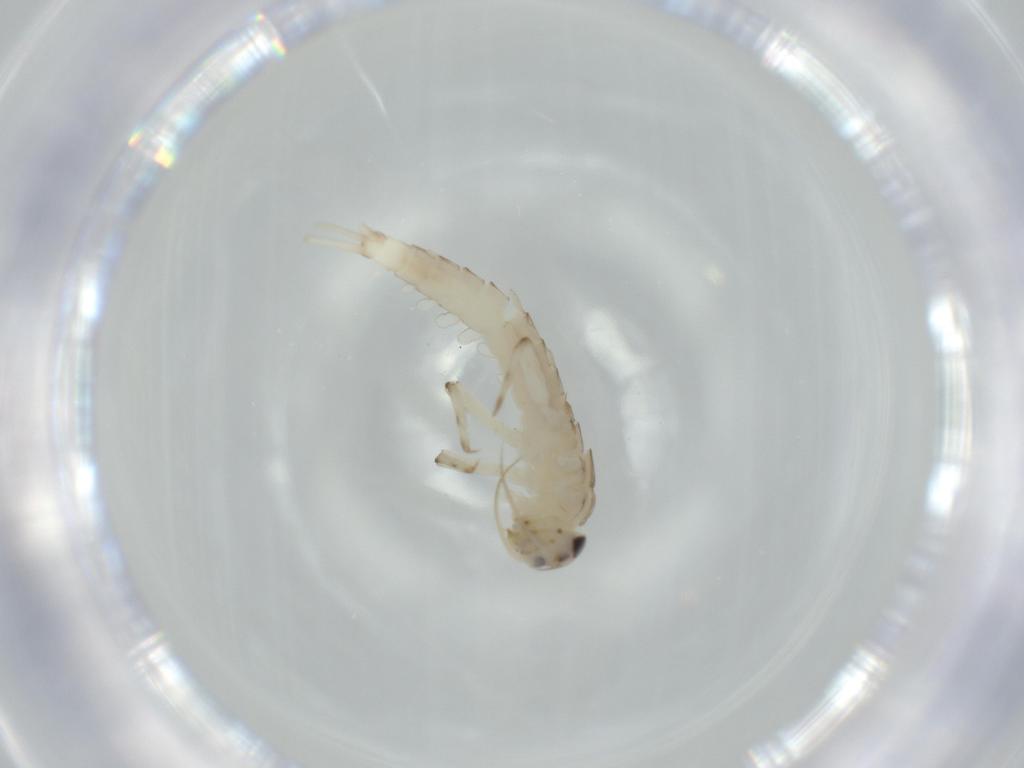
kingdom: Animalia
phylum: Arthropoda
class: Insecta
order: Ephemeroptera
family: Baetidae
